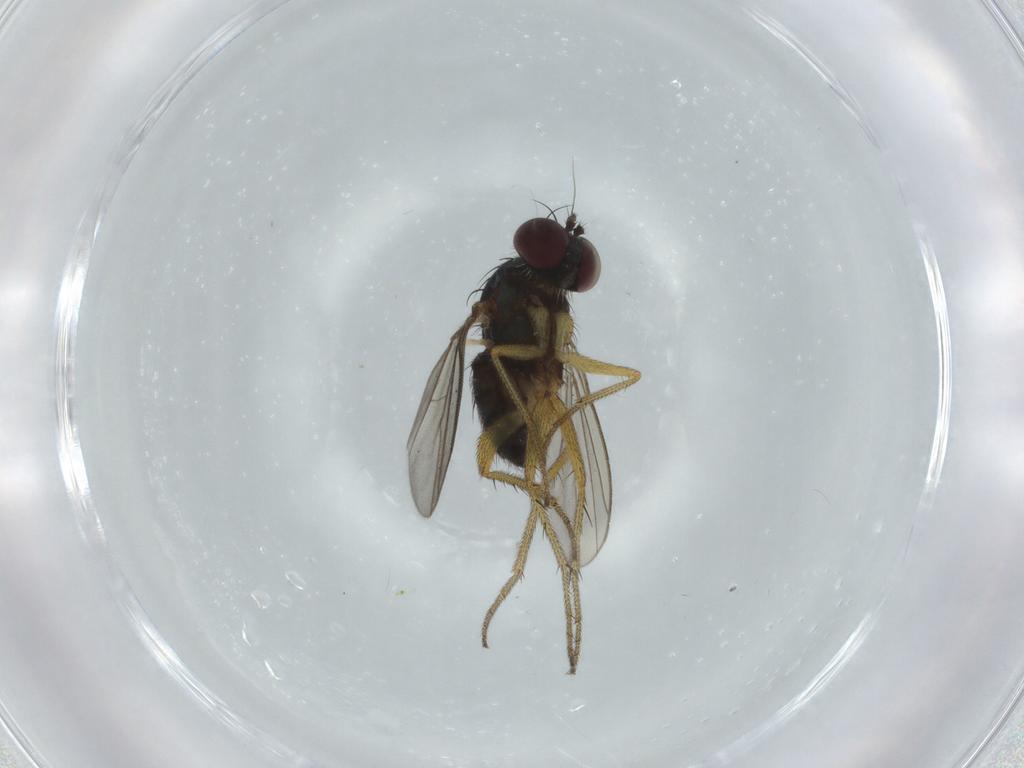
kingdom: Animalia
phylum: Arthropoda
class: Insecta
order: Diptera
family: Dolichopodidae
